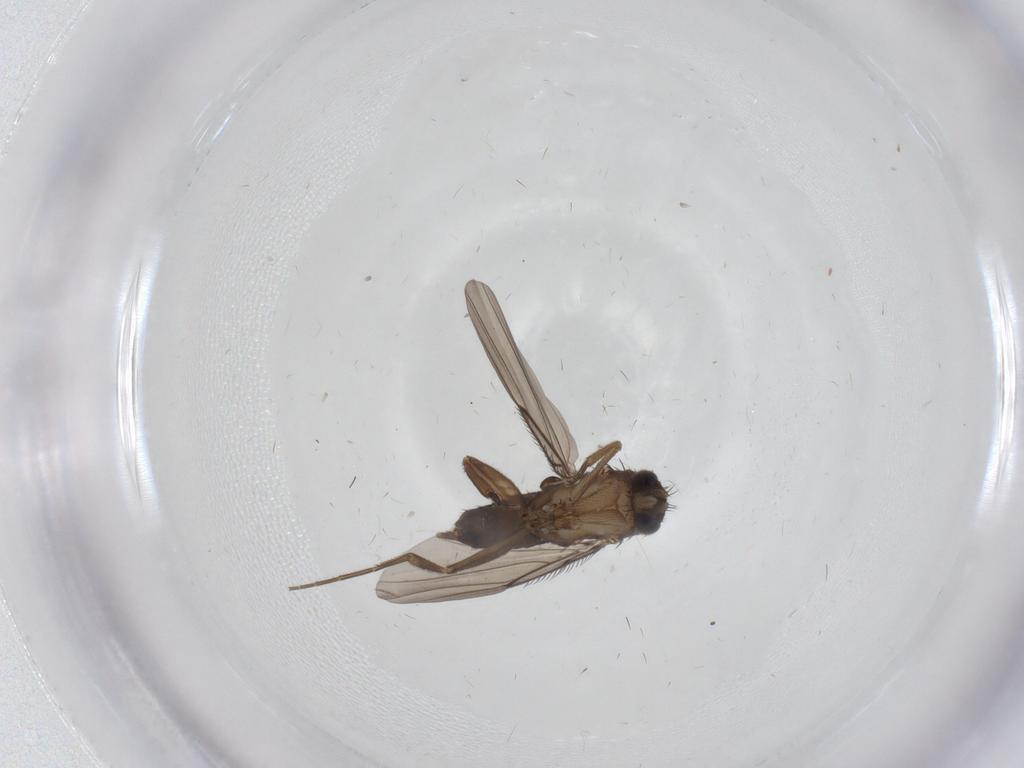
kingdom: Animalia
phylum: Arthropoda
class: Insecta
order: Diptera
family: Phoridae
